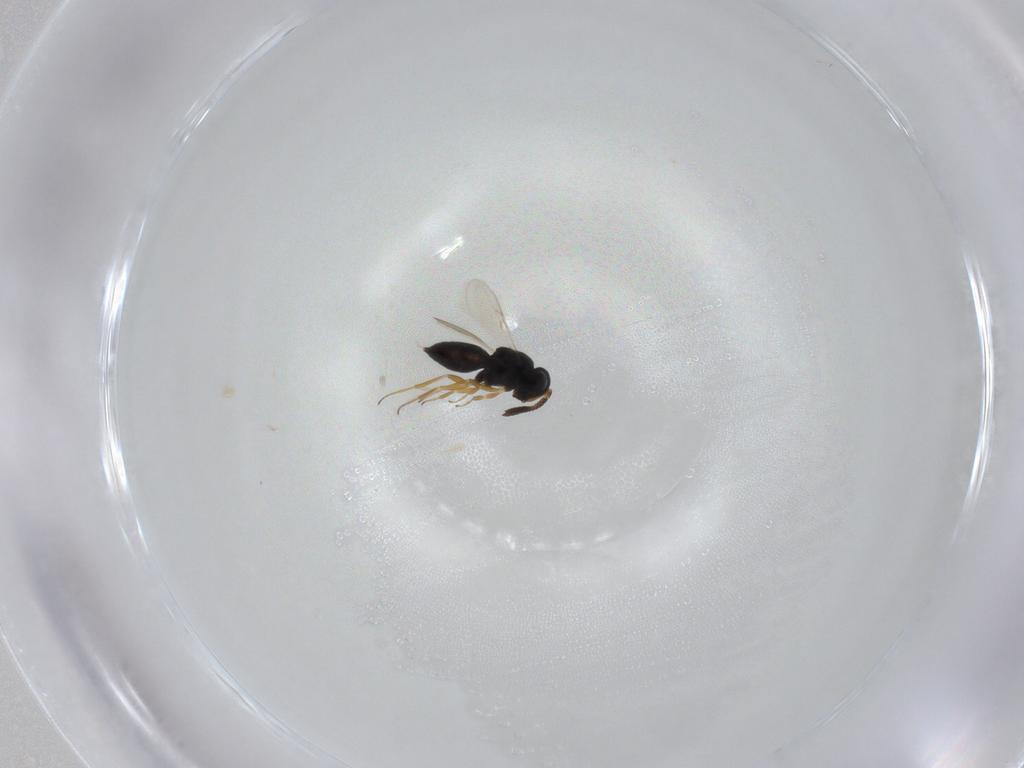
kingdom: Animalia
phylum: Arthropoda
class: Insecta
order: Hymenoptera
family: Scelionidae
